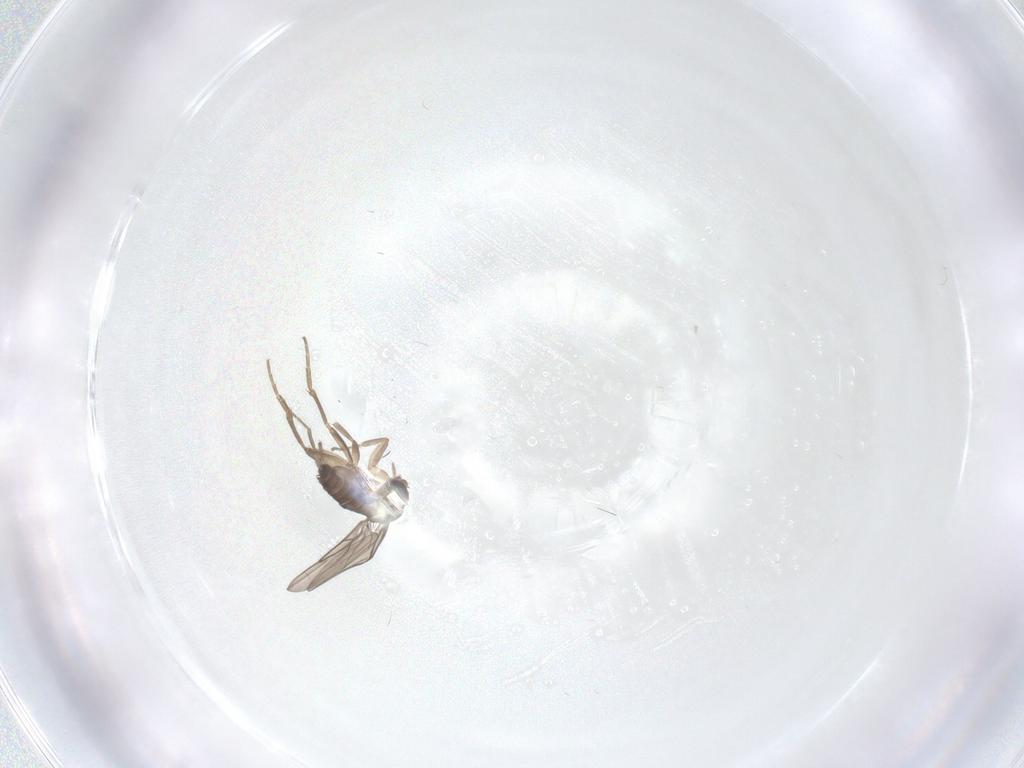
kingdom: Animalia
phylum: Arthropoda
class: Insecta
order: Diptera
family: Phoridae
